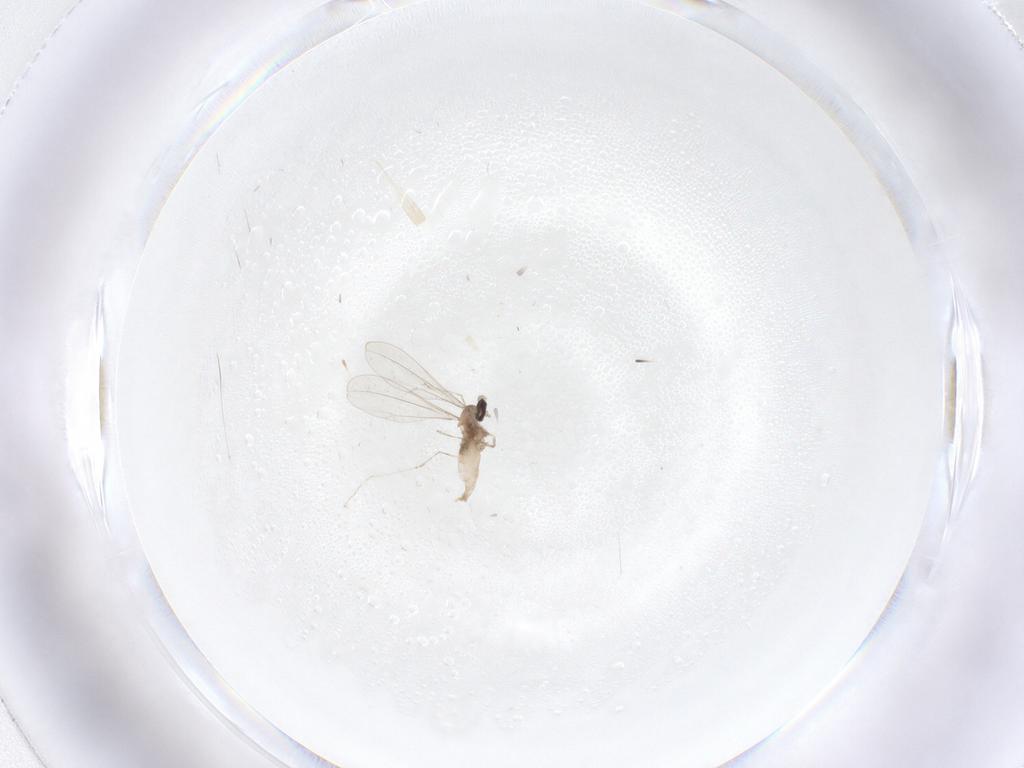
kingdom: Animalia
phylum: Arthropoda
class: Insecta
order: Diptera
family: Cecidomyiidae
